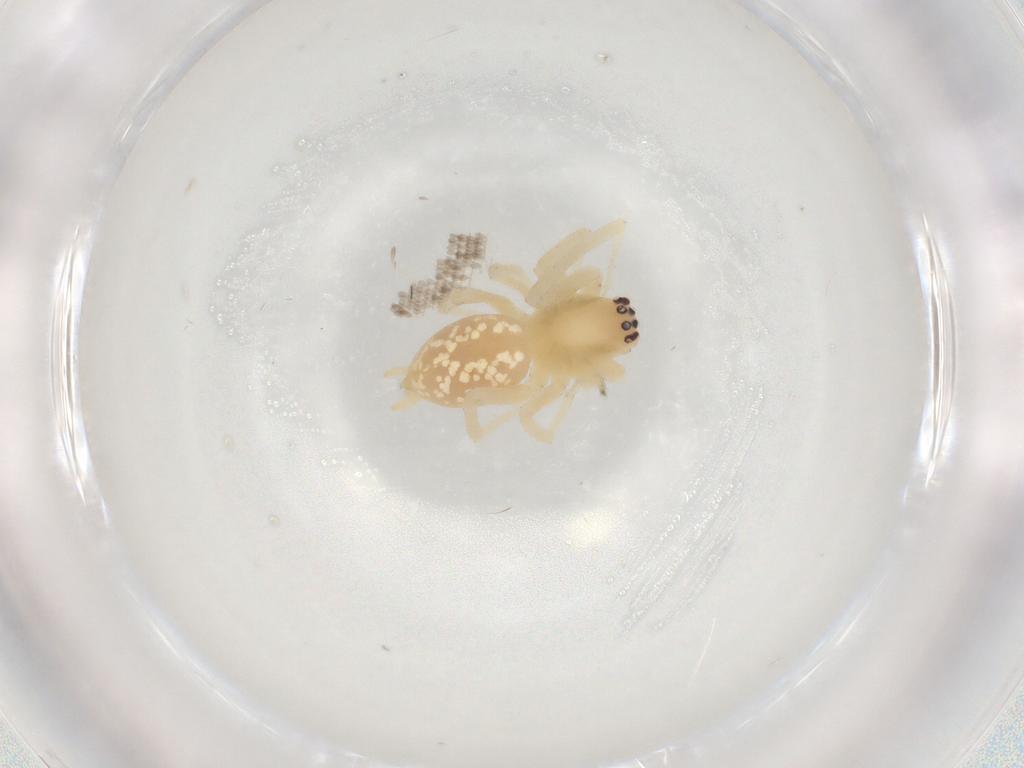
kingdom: Animalia
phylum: Arthropoda
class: Arachnida
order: Araneae
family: Cheiracanthiidae
